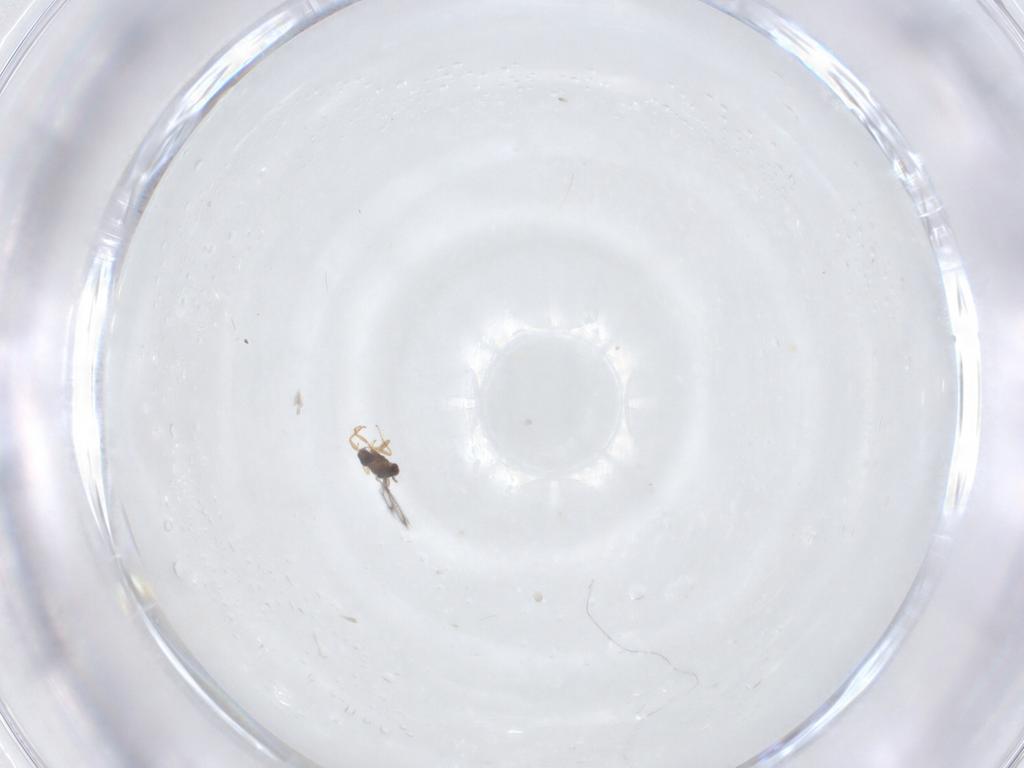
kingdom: Animalia
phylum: Arthropoda
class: Insecta
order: Hymenoptera
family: Mymaridae
